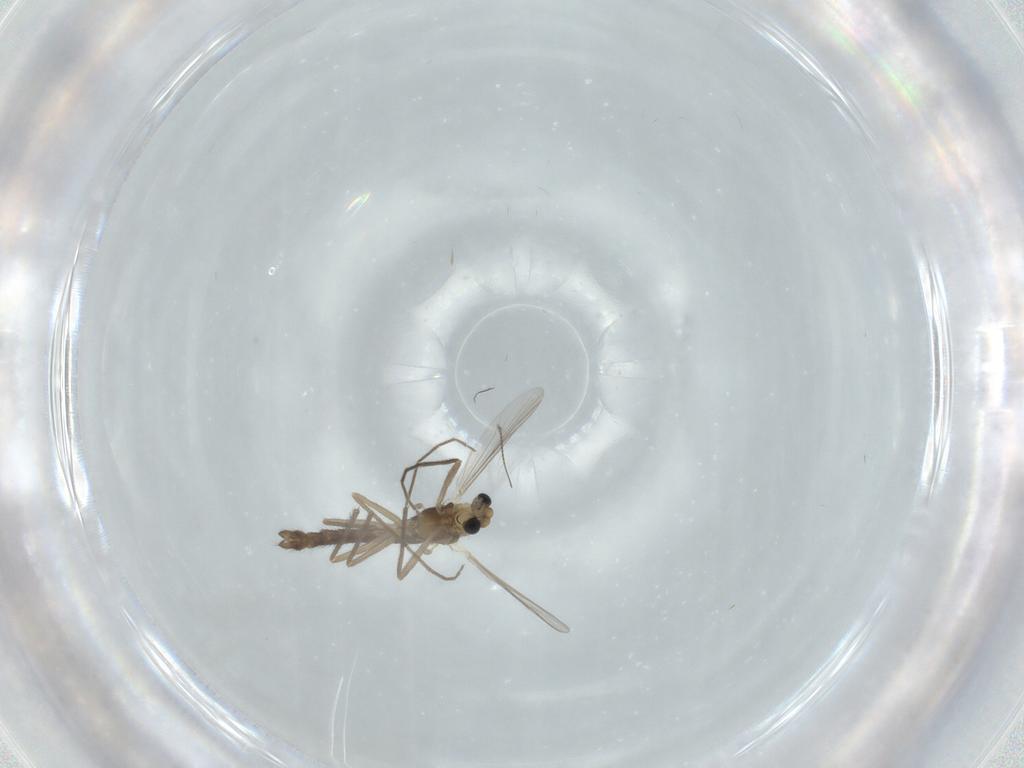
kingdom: Animalia
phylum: Arthropoda
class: Insecta
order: Diptera
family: Chironomidae
